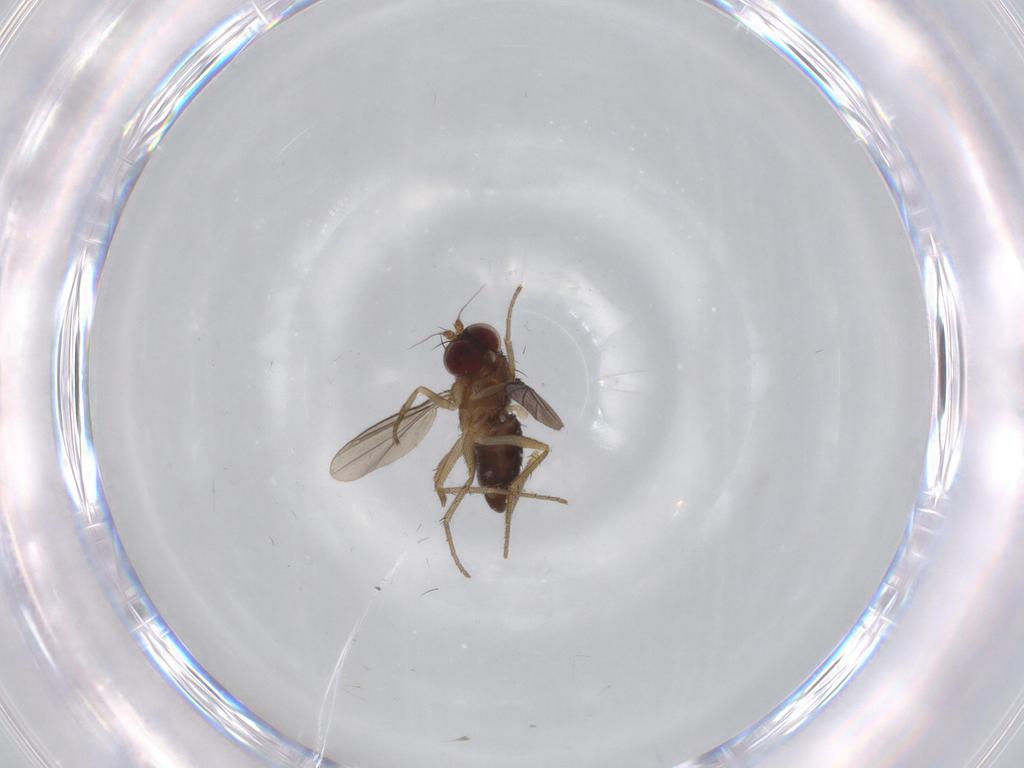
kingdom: Animalia
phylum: Arthropoda
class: Insecta
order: Diptera
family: Dolichopodidae
